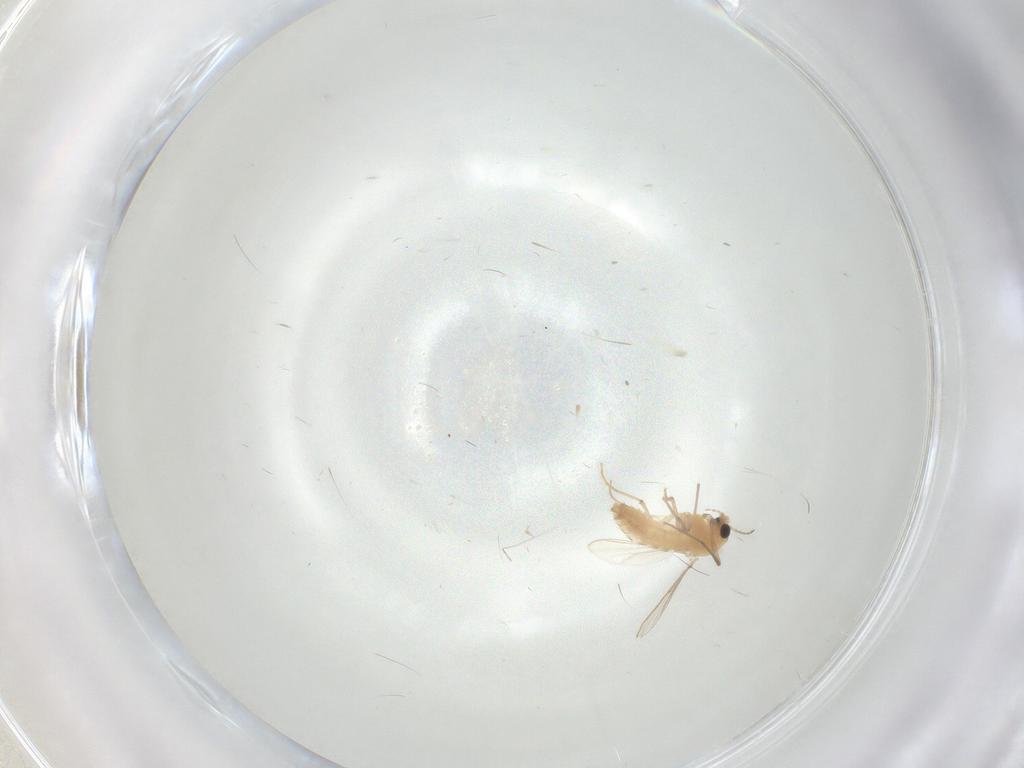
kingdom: Animalia
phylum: Arthropoda
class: Insecta
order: Diptera
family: Chironomidae
